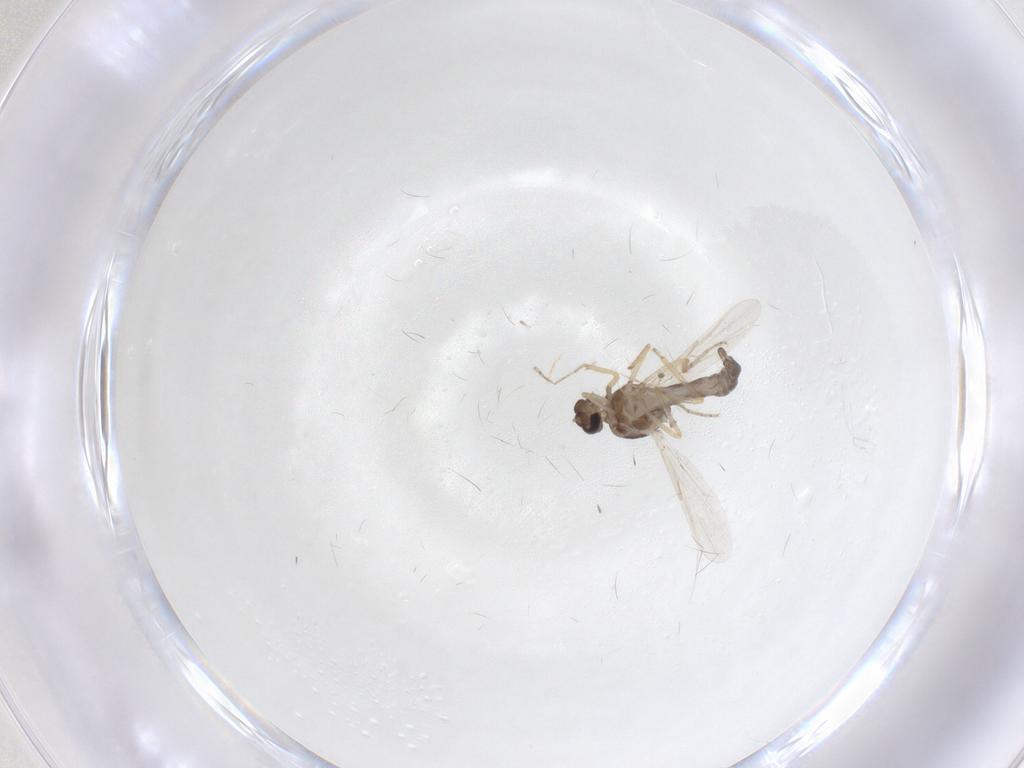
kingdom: Animalia
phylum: Arthropoda
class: Insecta
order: Diptera
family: Ceratopogonidae
